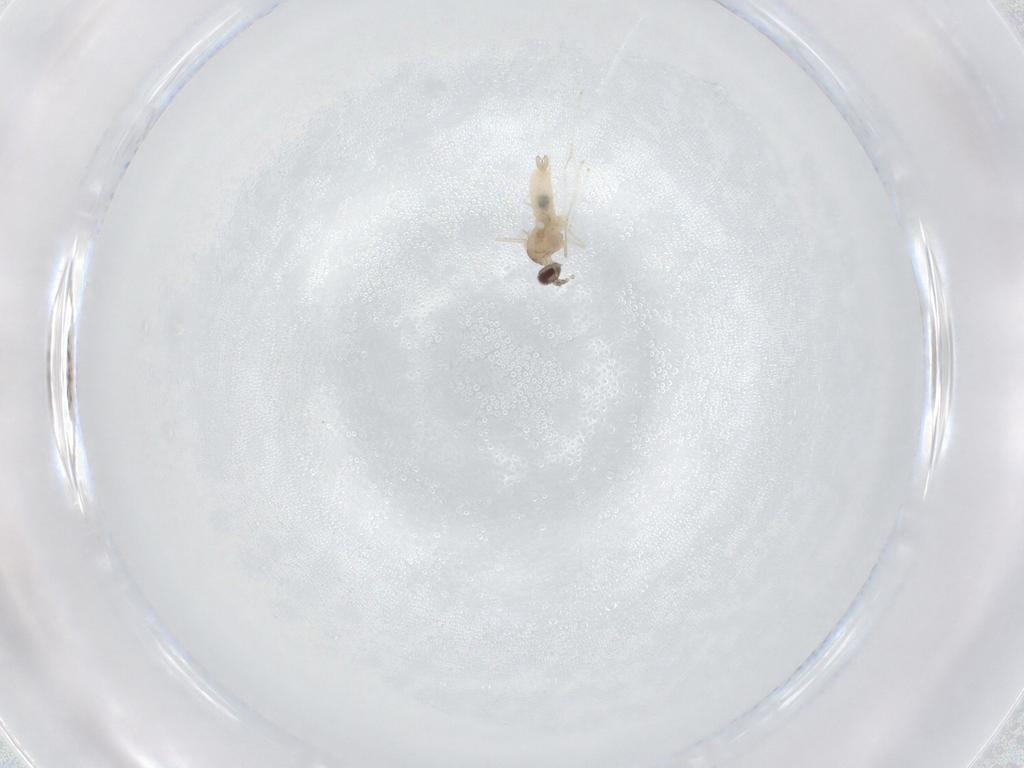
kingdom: Animalia
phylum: Arthropoda
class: Insecta
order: Diptera
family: Cecidomyiidae
